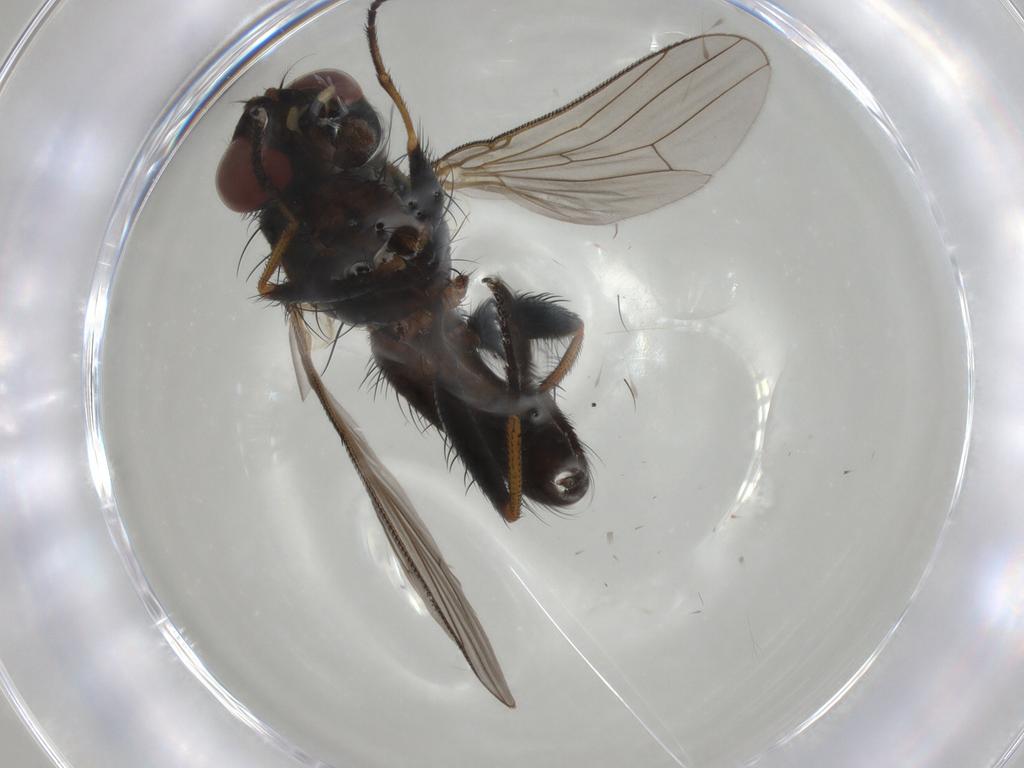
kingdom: Animalia
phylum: Arthropoda
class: Insecta
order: Diptera
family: Muscidae
